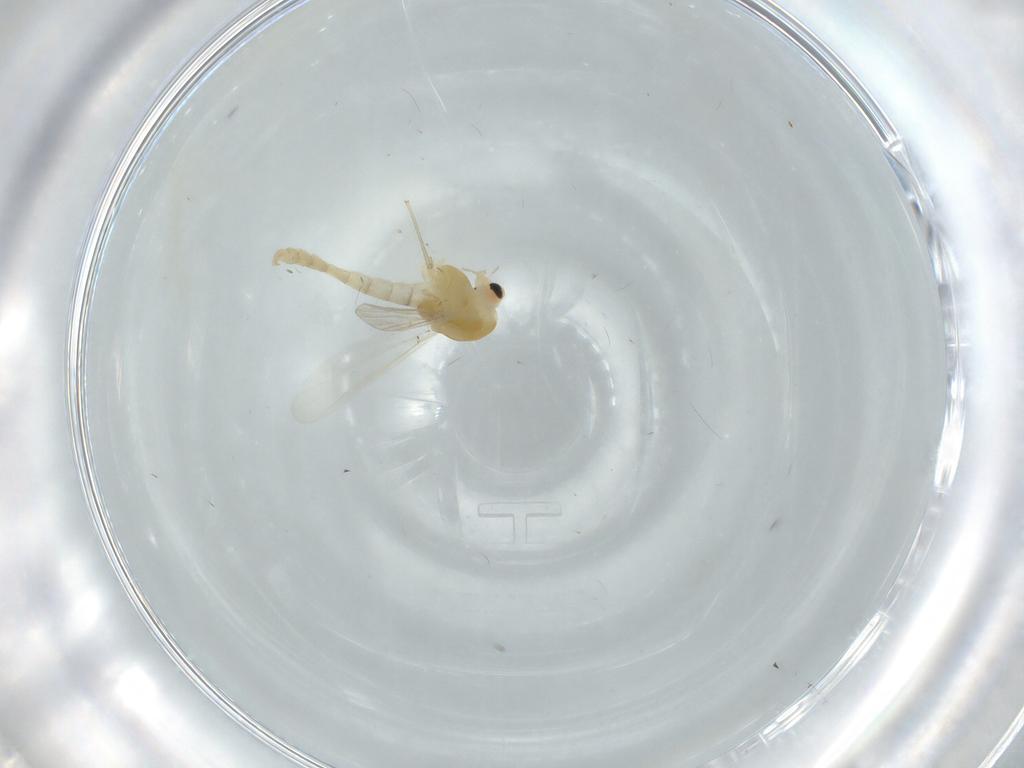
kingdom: Animalia
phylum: Arthropoda
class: Insecta
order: Diptera
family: Chironomidae
